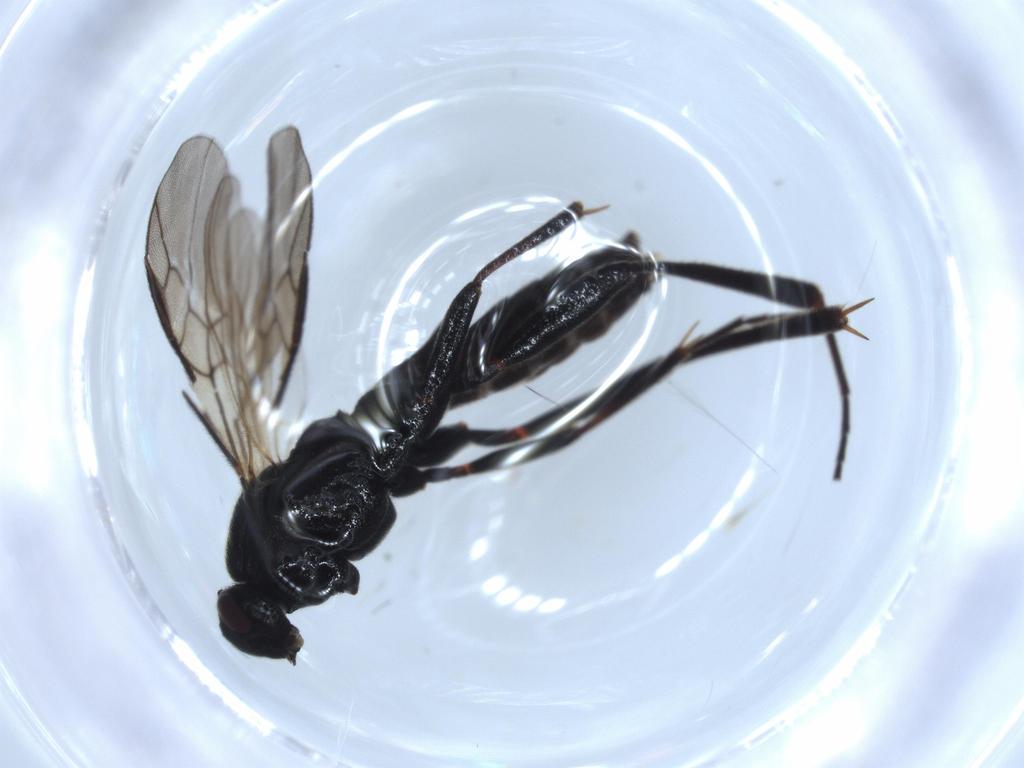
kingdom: Animalia
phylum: Arthropoda
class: Insecta
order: Hymenoptera
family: Braconidae
